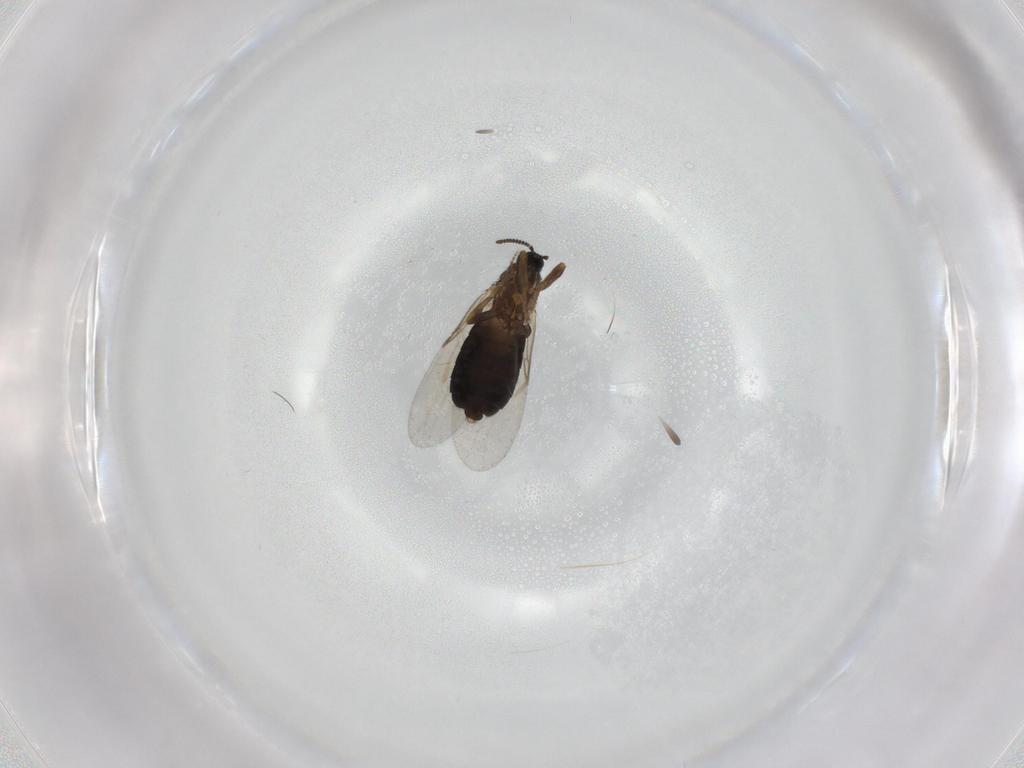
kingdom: Animalia
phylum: Arthropoda
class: Insecta
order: Diptera
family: Scatopsidae
